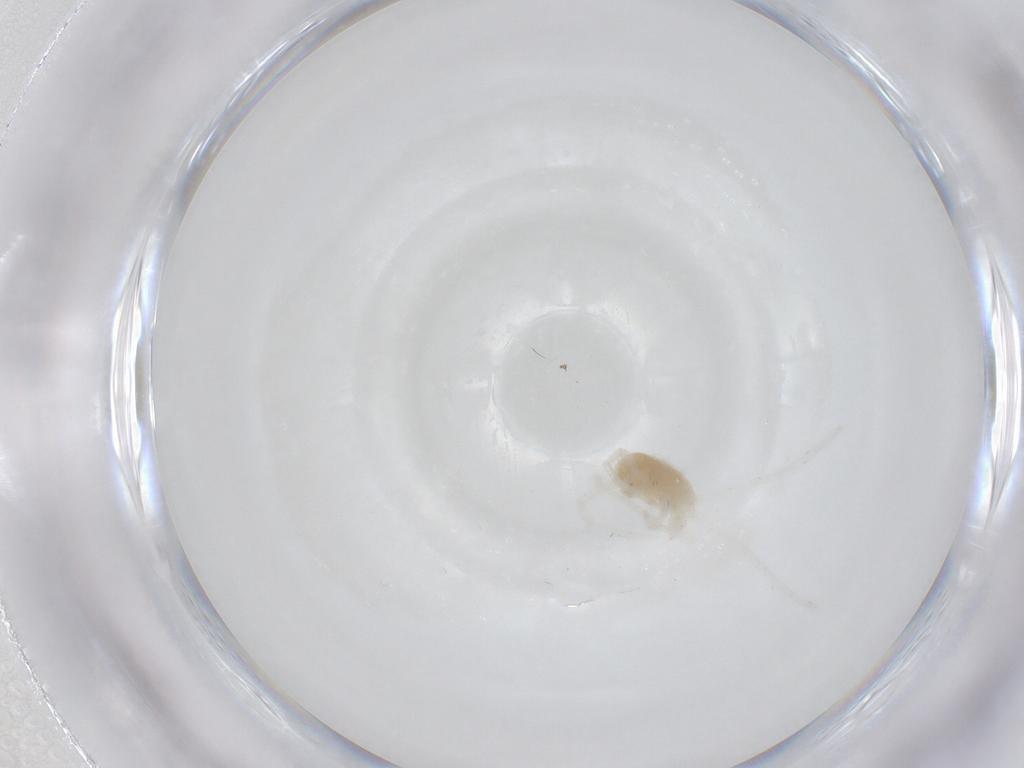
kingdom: Animalia
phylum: Arthropoda
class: Arachnida
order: Trombidiformes
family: Teneriffiidae
